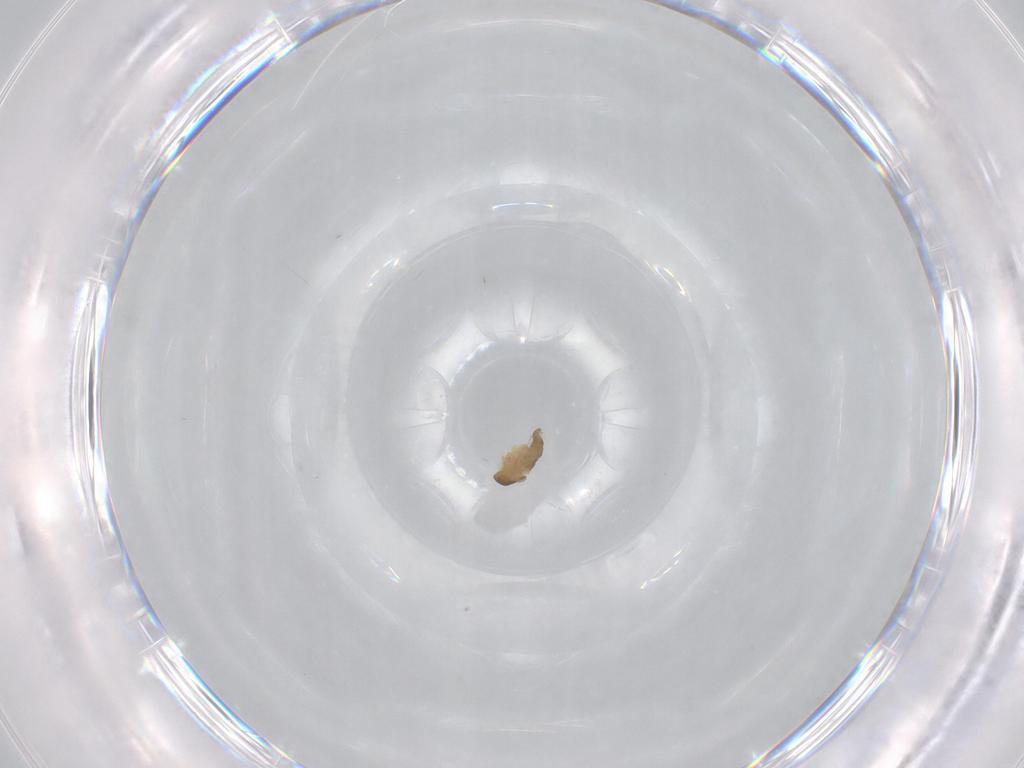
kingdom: Animalia
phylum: Arthropoda
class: Insecta
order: Diptera
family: Cecidomyiidae
